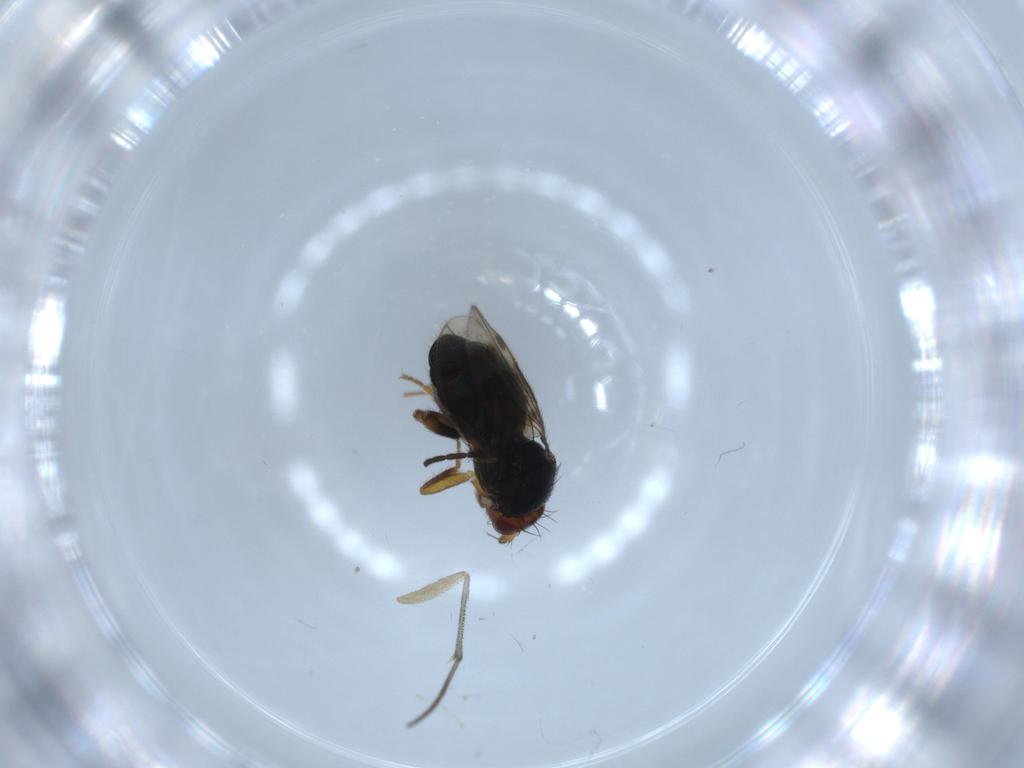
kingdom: Animalia
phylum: Arthropoda
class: Insecta
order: Diptera
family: Sphaeroceridae
